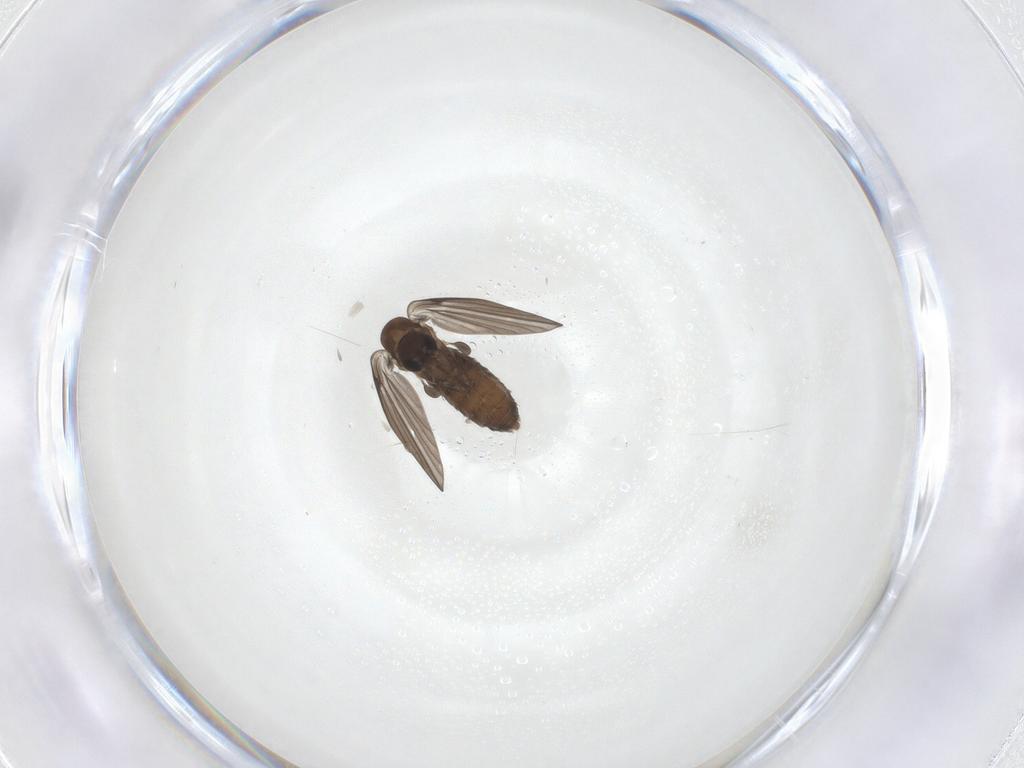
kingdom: Animalia
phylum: Arthropoda
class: Insecta
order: Diptera
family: Psychodidae
